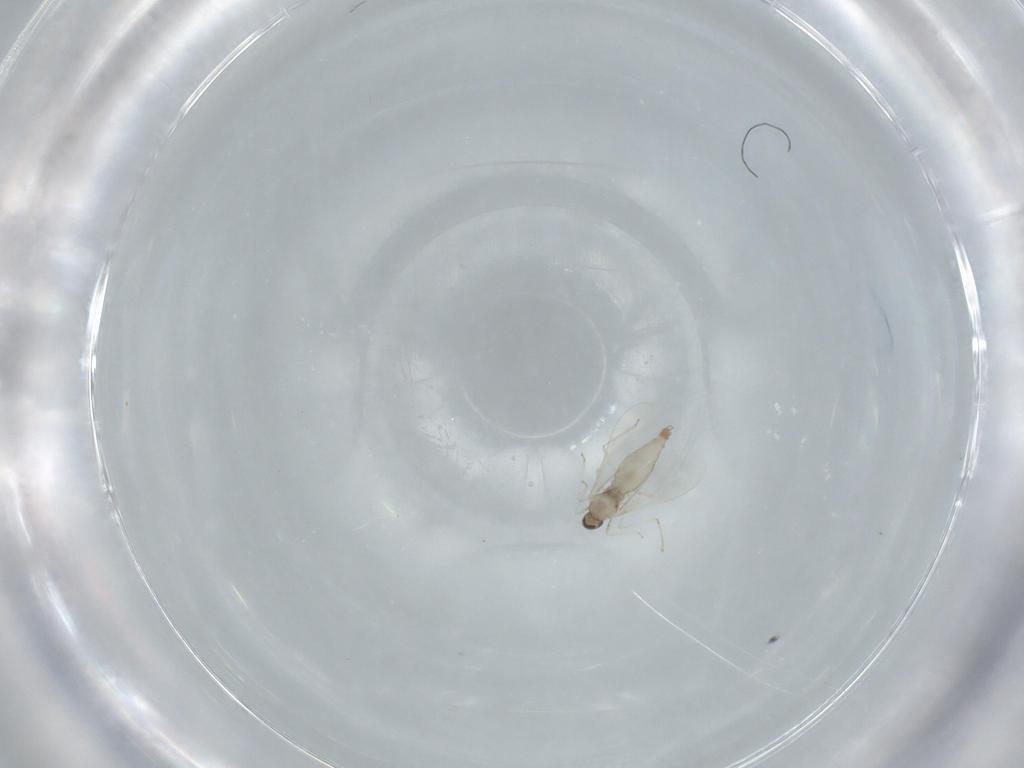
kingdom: Animalia
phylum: Arthropoda
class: Insecta
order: Diptera
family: Calliphoridae
